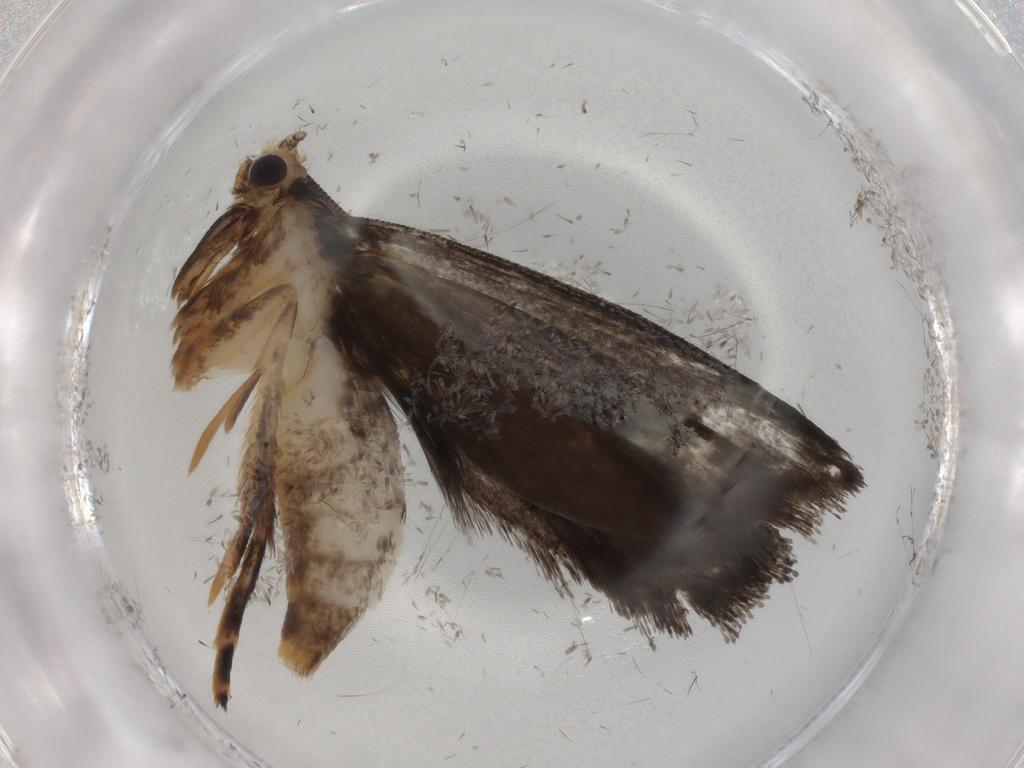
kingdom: Animalia
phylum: Arthropoda
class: Insecta
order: Lepidoptera
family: Tineidae
